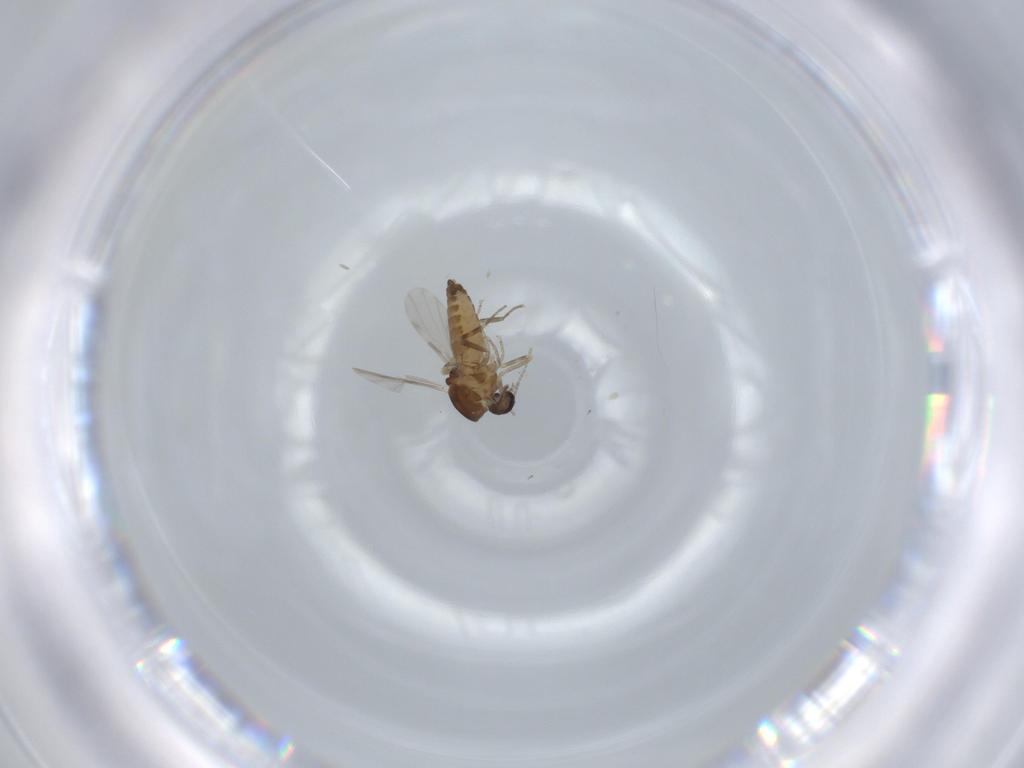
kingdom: Animalia
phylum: Arthropoda
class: Insecta
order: Diptera
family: Ceratopogonidae
